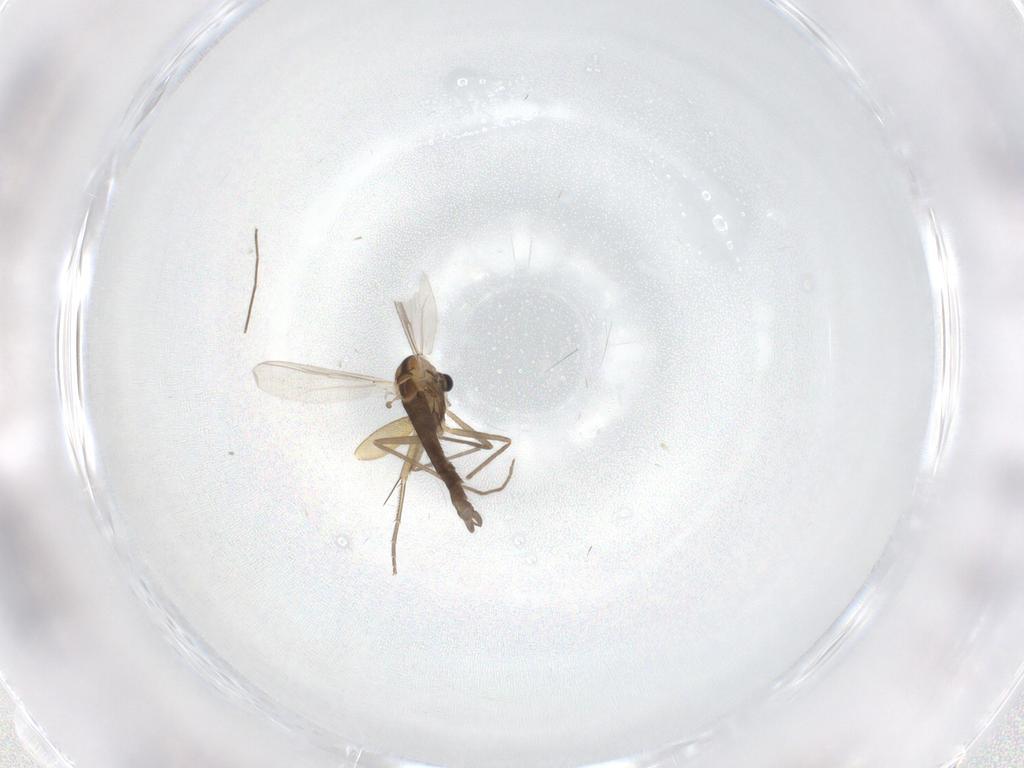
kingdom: Animalia
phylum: Arthropoda
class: Insecta
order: Diptera
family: Chironomidae
